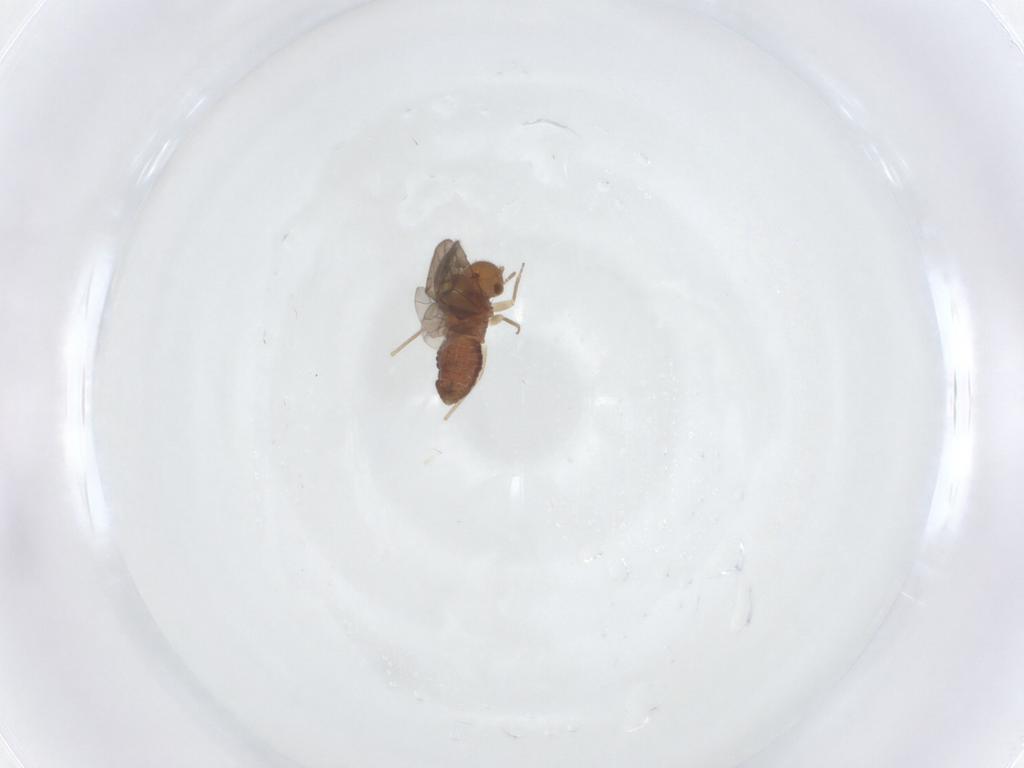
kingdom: Animalia
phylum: Arthropoda
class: Insecta
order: Psocodea
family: Ectopsocidae
